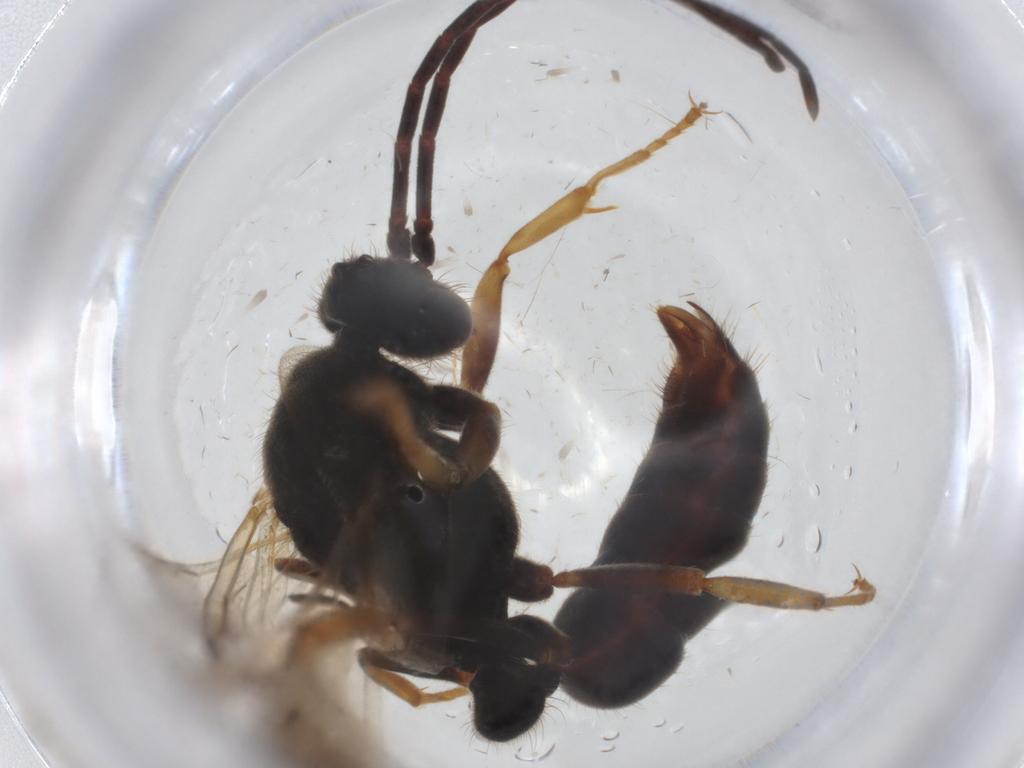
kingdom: Animalia
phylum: Arthropoda
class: Insecta
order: Hymenoptera
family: Formicidae
